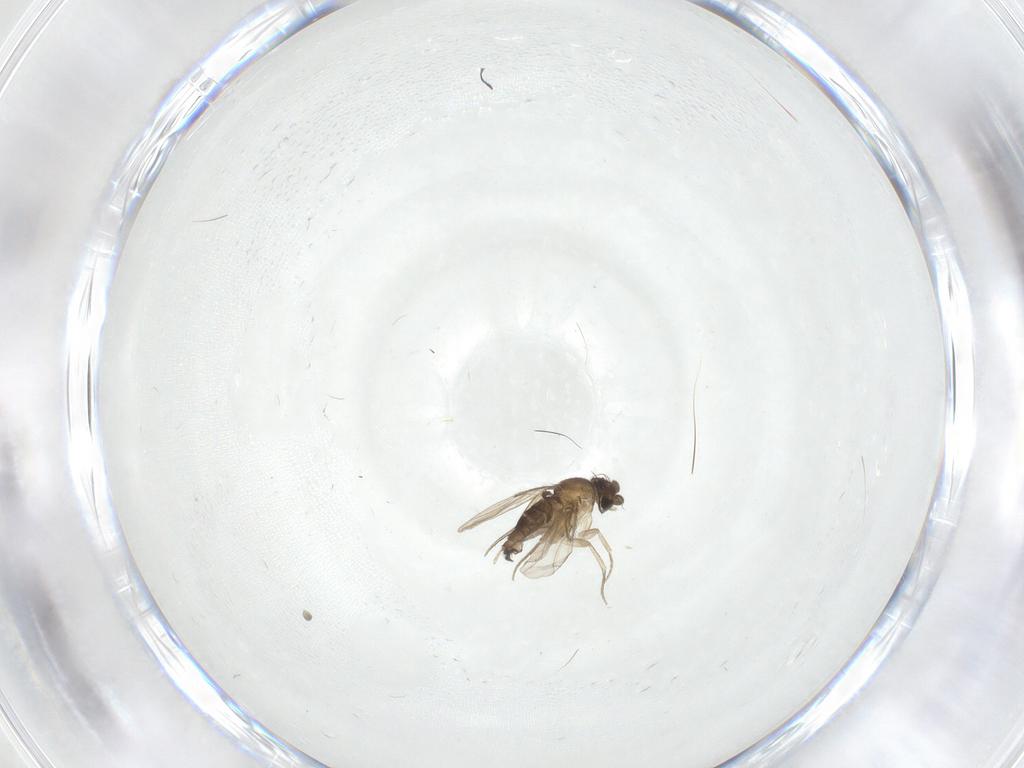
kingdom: Animalia
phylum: Arthropoda
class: Insecta
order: Diptera
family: Phoridae
